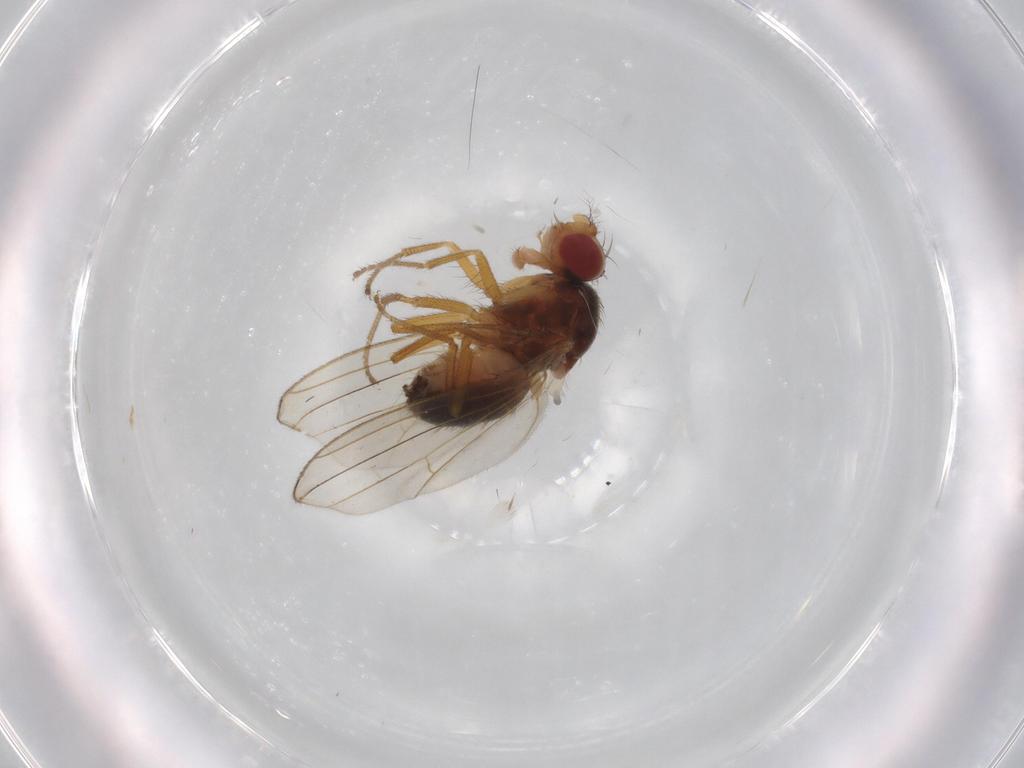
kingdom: Animalia
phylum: Arthropoda
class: Insecta
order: Diptera
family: Drosophilidae
